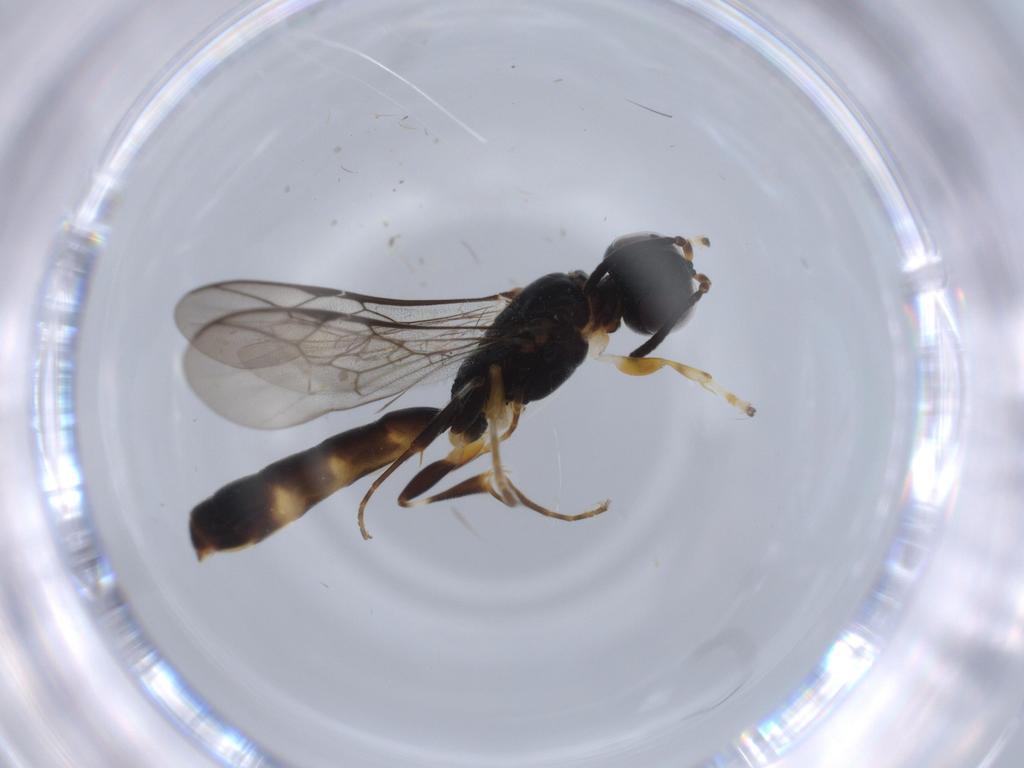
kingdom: Animalia
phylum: Arthropoda
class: Insecta
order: Hymenoptera
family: Crabronidae
